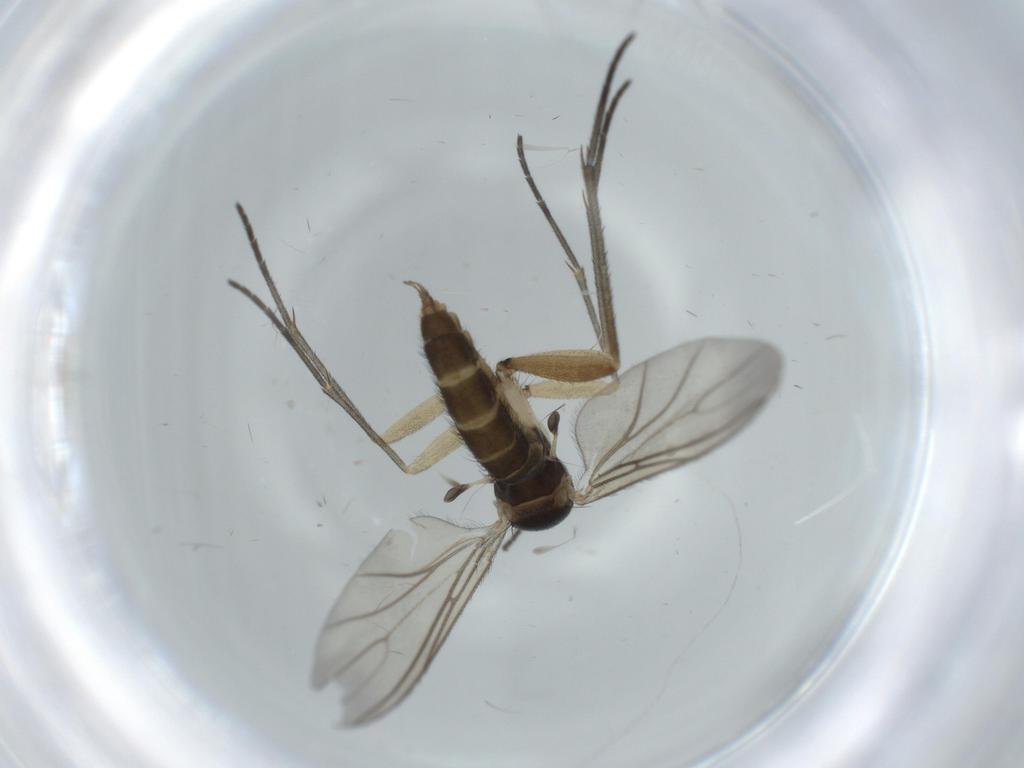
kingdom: Animalia
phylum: Arthropoda
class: Insecta
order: Diptera
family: Sciaridae
